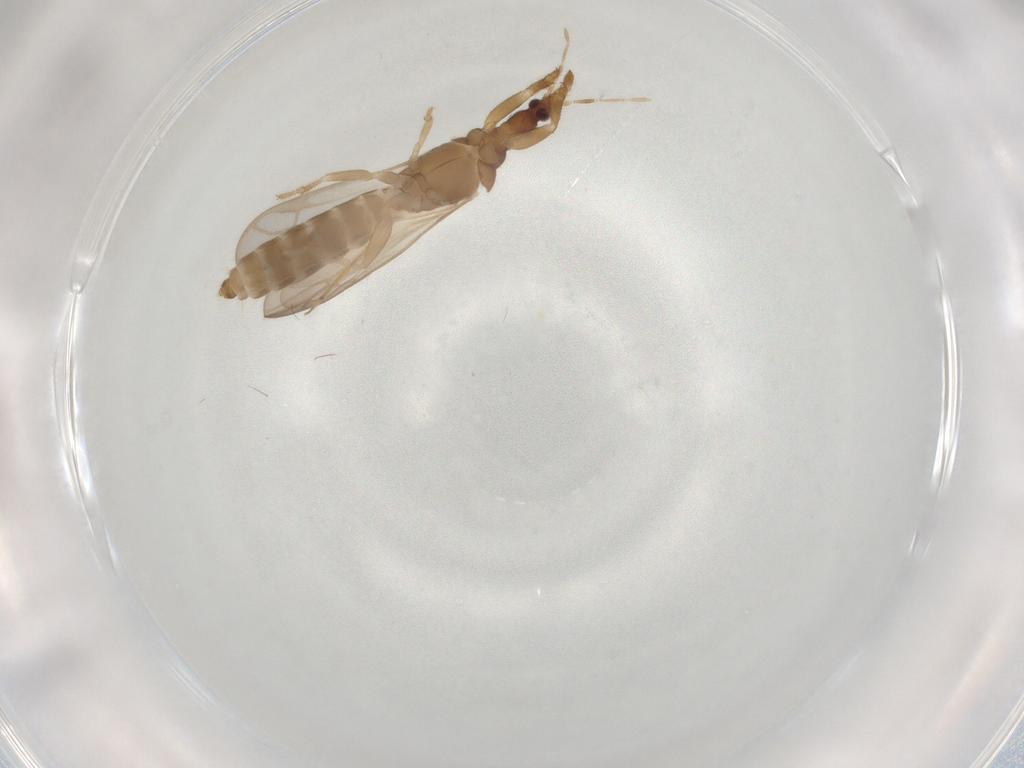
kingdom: Animalia
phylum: Arthropoda
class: Insecta
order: Hemiptera
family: Enicocephalidae
